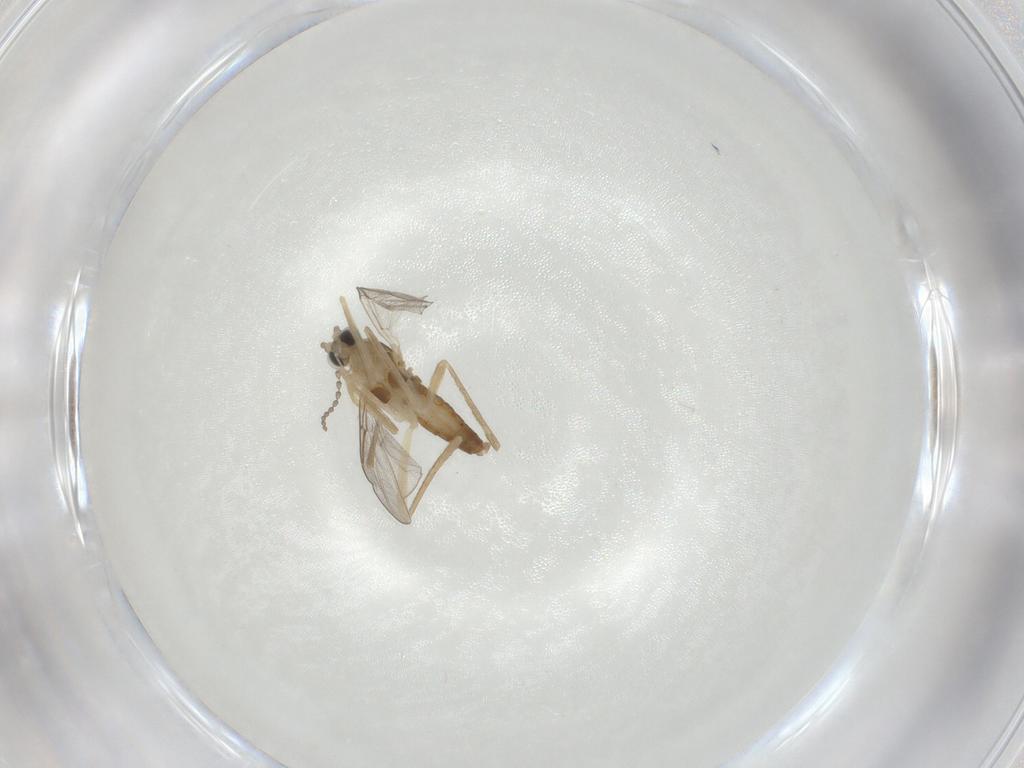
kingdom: Animalia
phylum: Arthropoda
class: Insecta
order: Diptera
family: Cecidomyiidae
